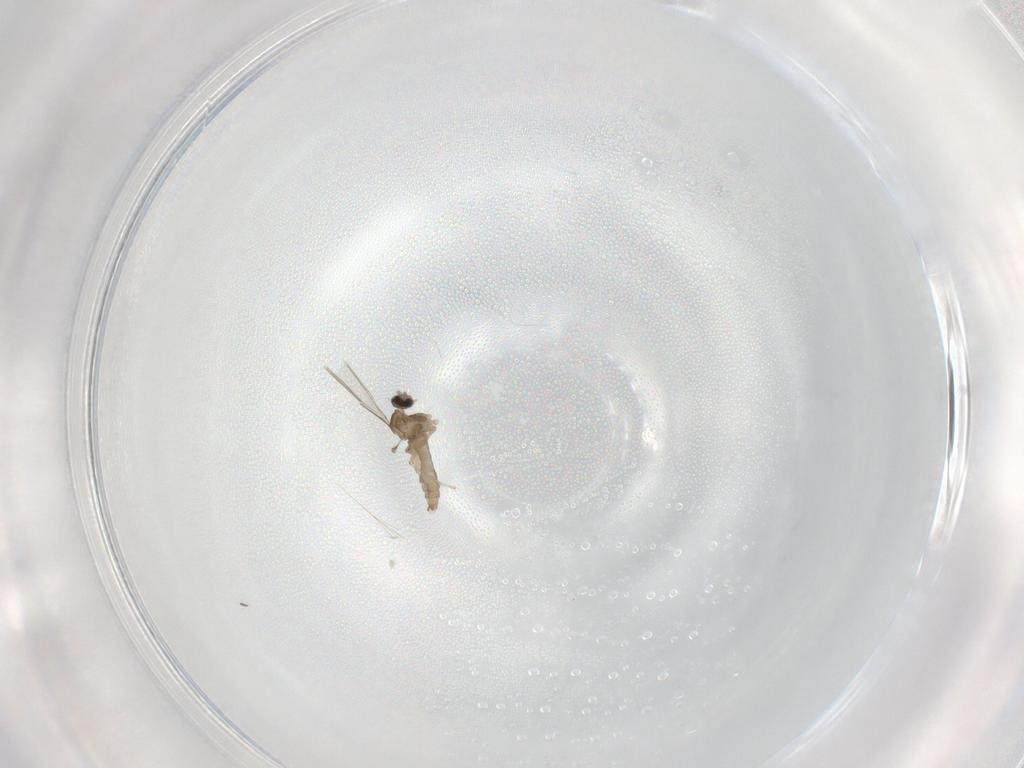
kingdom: Animalia
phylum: Arthropoda
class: Insecta
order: Diptera
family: Cecidomyiidae
